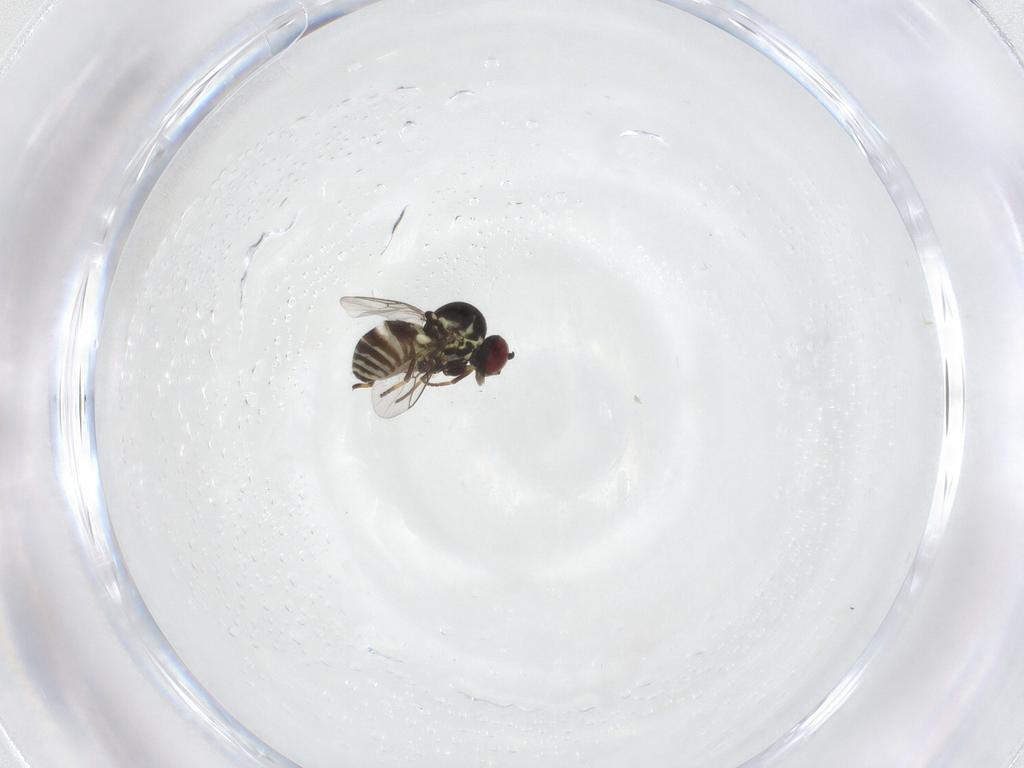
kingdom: Animalia
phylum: Arthropoda
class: Insecta
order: Diptera
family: Mythicomyiidae
